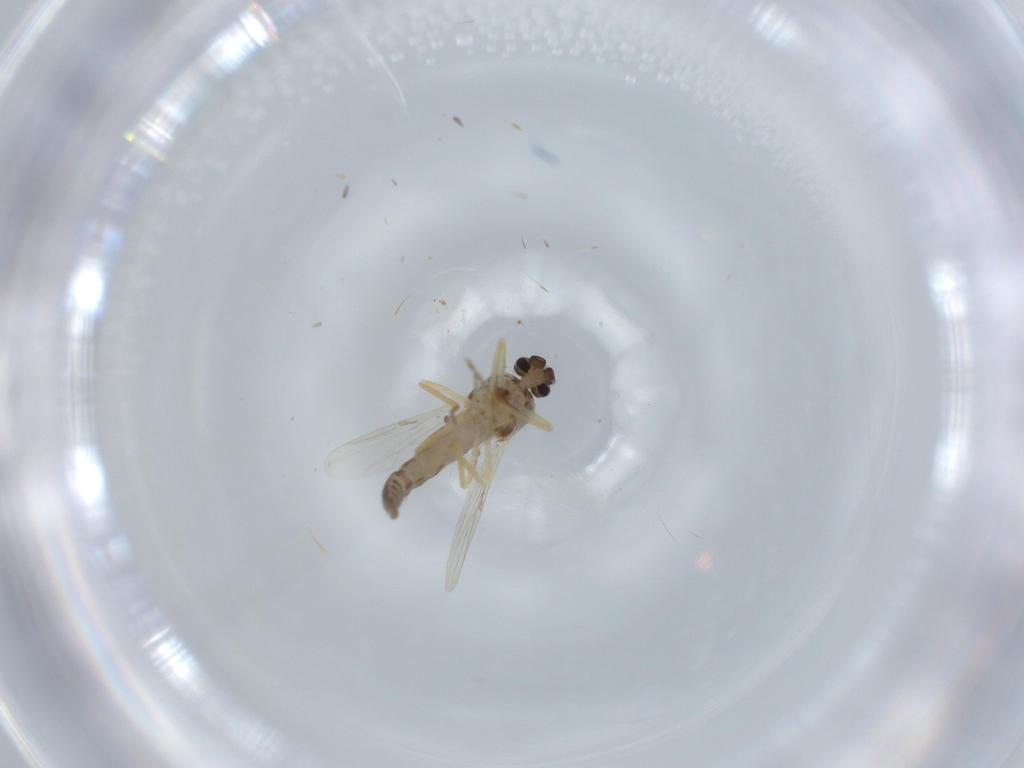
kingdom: Animalia
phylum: Arthropoda
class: Insecta
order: Diptera
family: Ceratopogonidae
